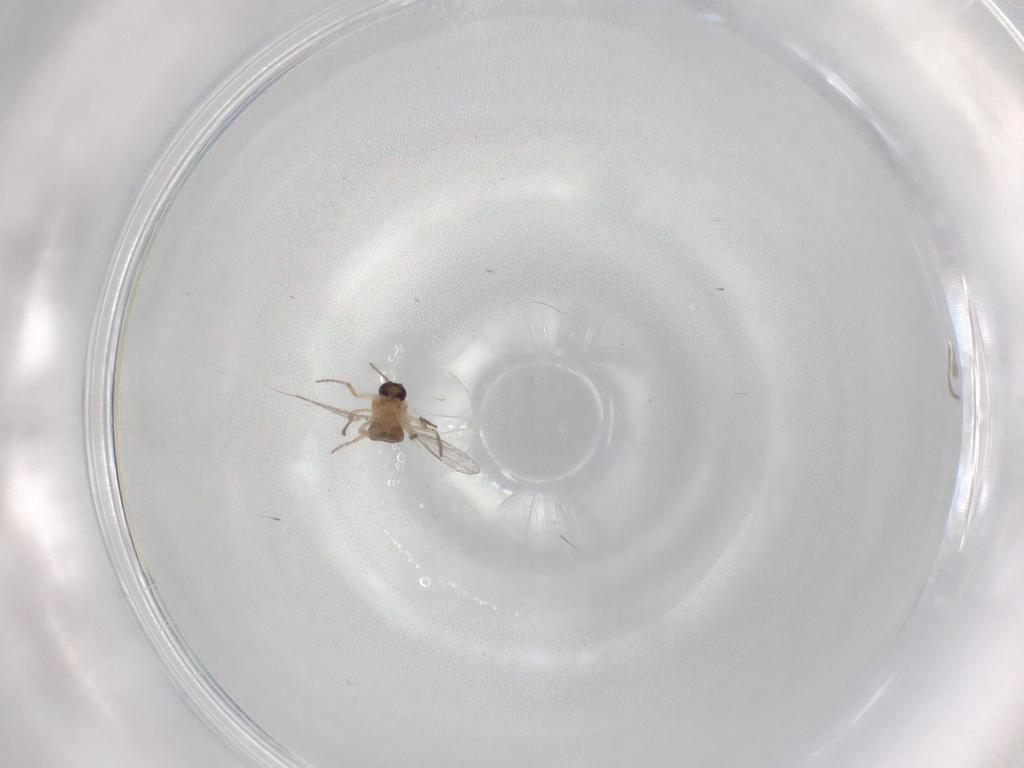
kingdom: Animalia
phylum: Arthropoda
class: Insecta
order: Diptera
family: Ceratopogonidae
